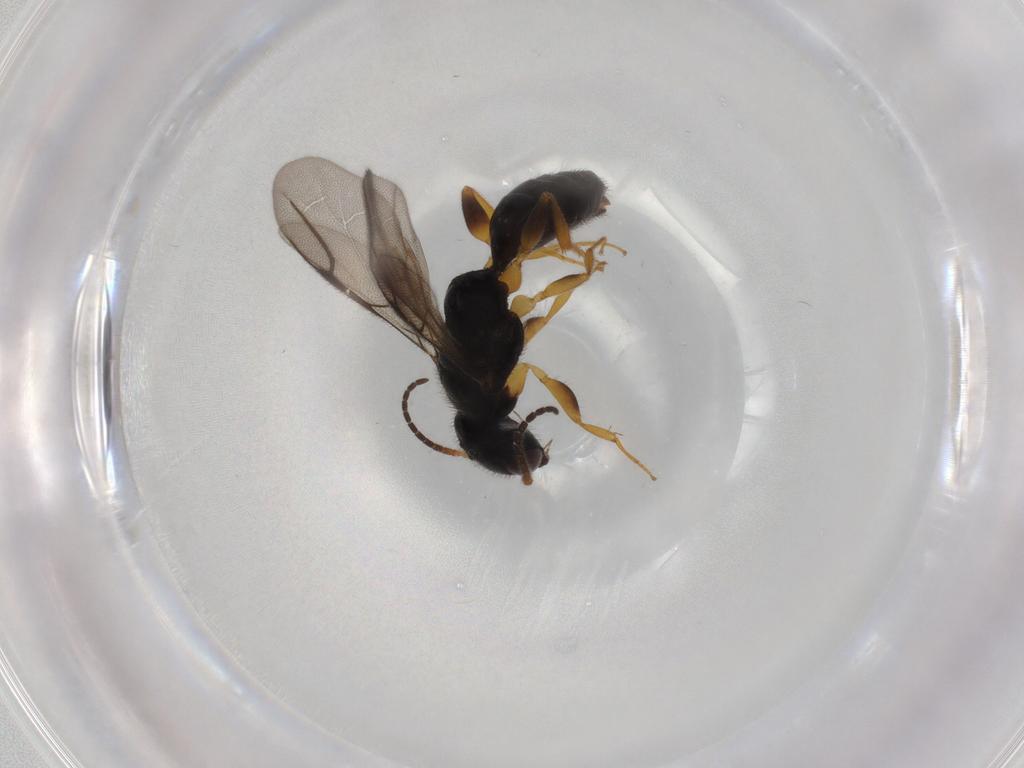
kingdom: Animalia
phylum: Arthropoda
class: Insecta
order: Hymenoptera
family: Bethylidae
